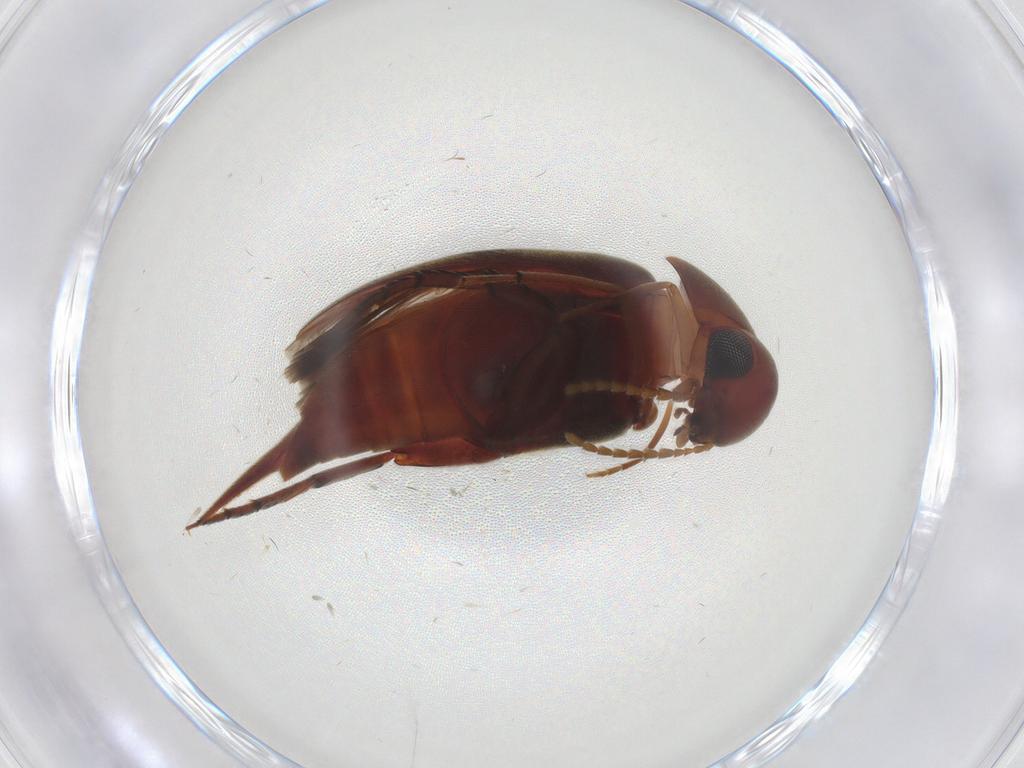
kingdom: Animalia
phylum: Arthropoda
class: Insecta
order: Coleoptera
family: Mordellidae
